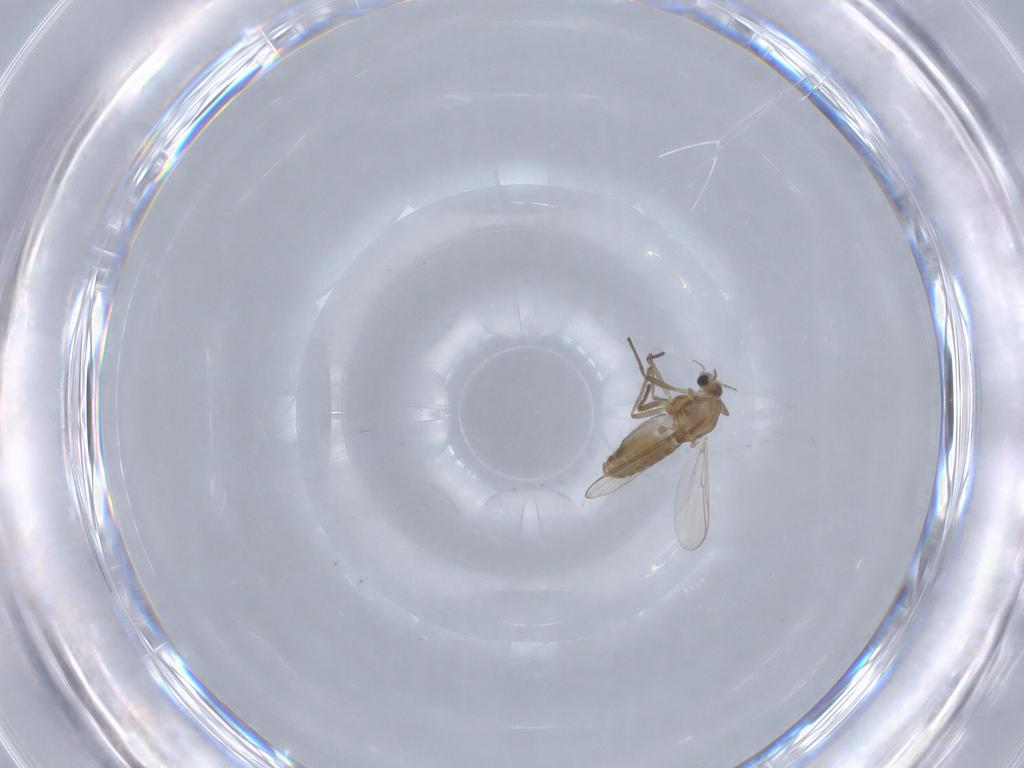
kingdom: Animalia
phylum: Arthropoda
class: Insecta
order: Diptera
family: Chironomidae
